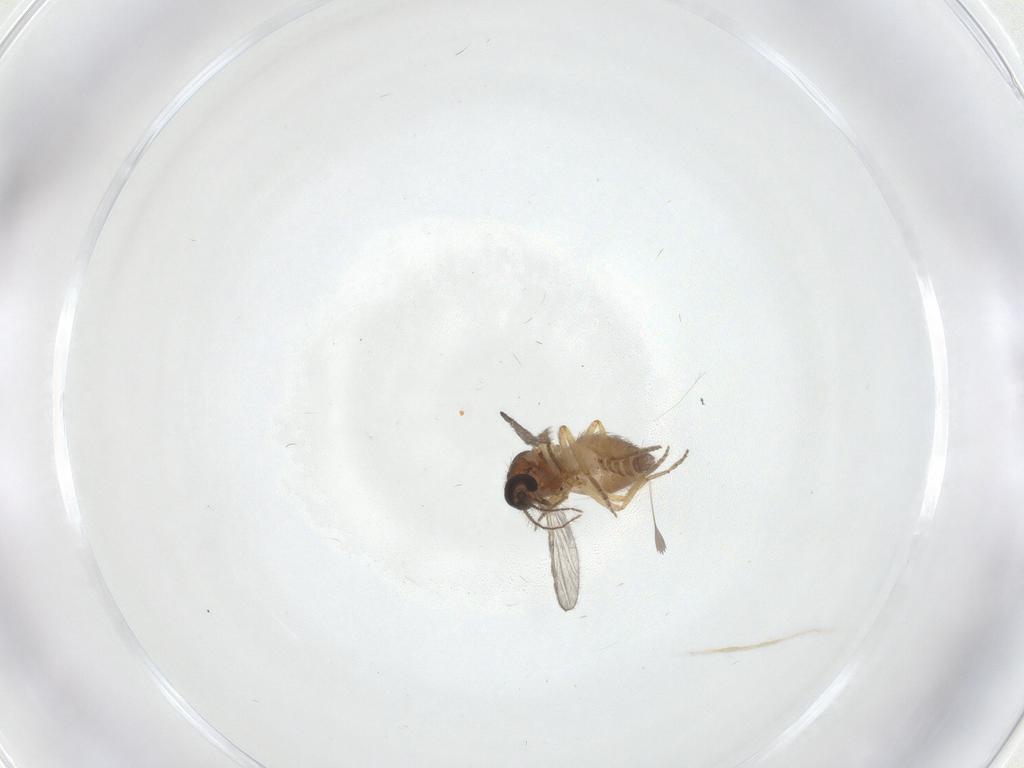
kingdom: Animalia
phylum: Arthropoda
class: Insecta
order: Diptera
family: Ceratopogonidae
